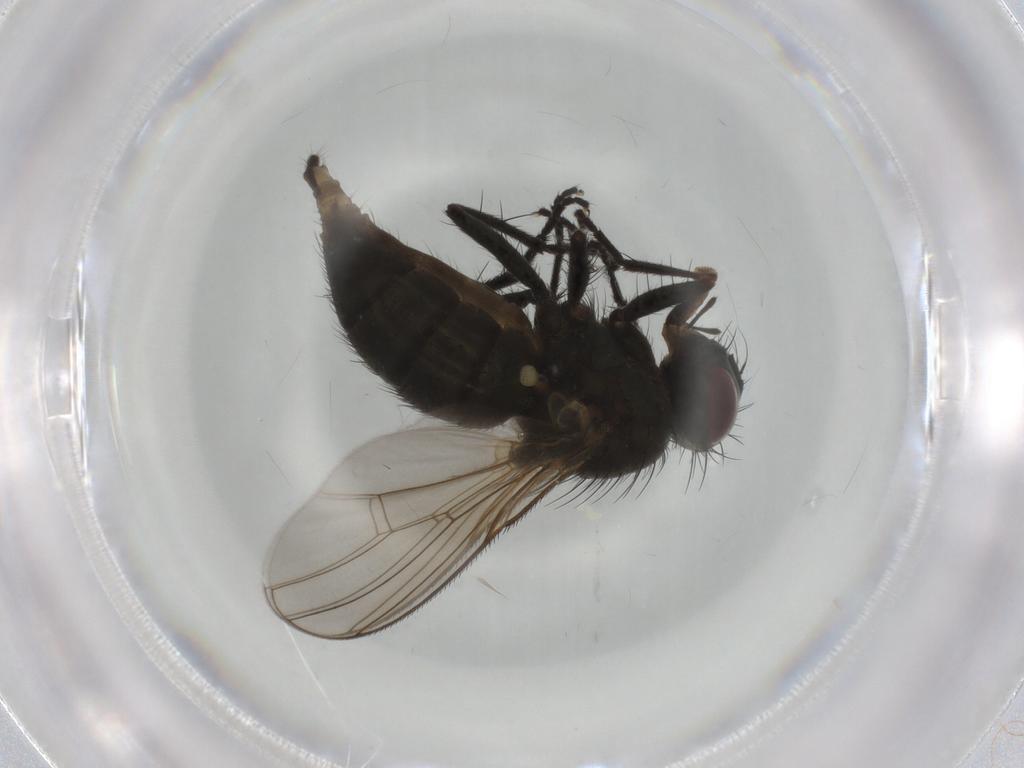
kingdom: Animalia
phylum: Arthropoda
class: Insecta
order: Diptera
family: Muscidae
